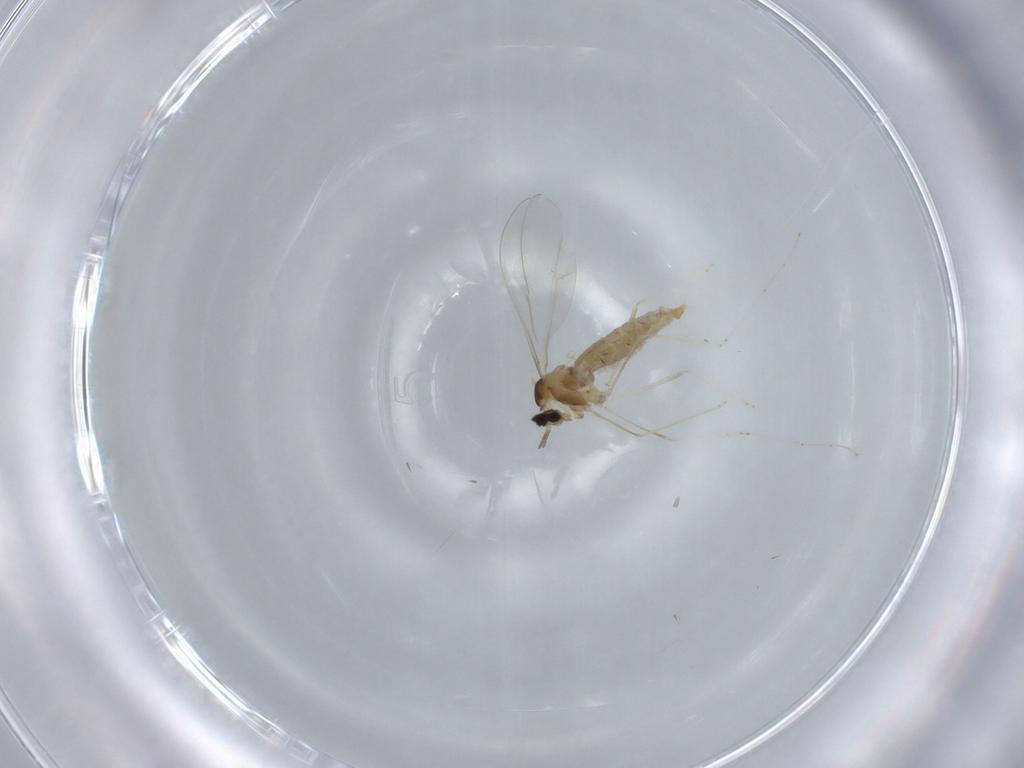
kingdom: Animalia
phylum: Arthropoda
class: Insecta
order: Diptera
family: Cecidomyiidae
